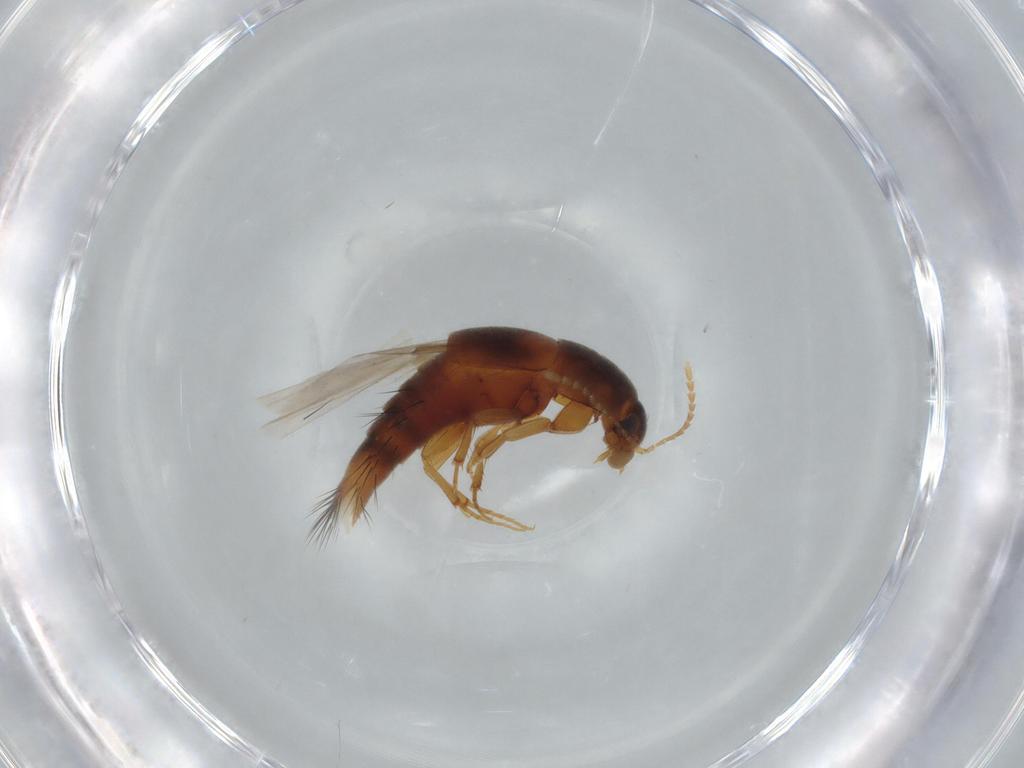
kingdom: Animalia
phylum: Arthropoda
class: Insecta
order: Coleoptera
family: Staphylinidae
